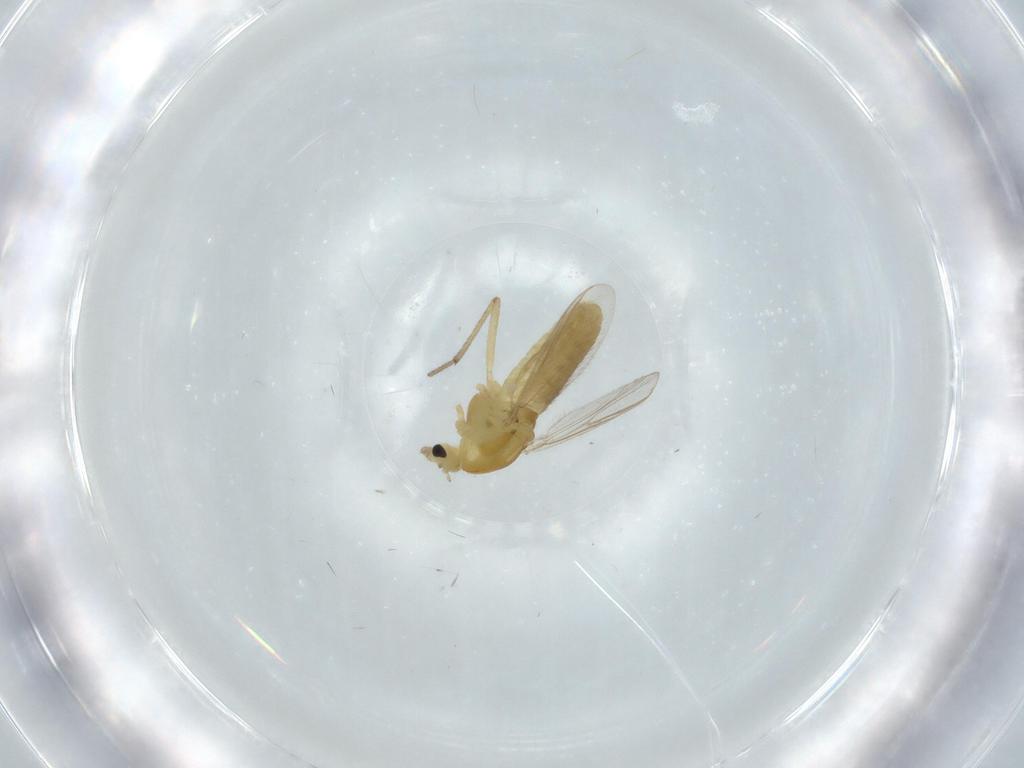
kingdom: Animalia
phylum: Arthropoda
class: Insecta
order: Diptera
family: Chironomidae
